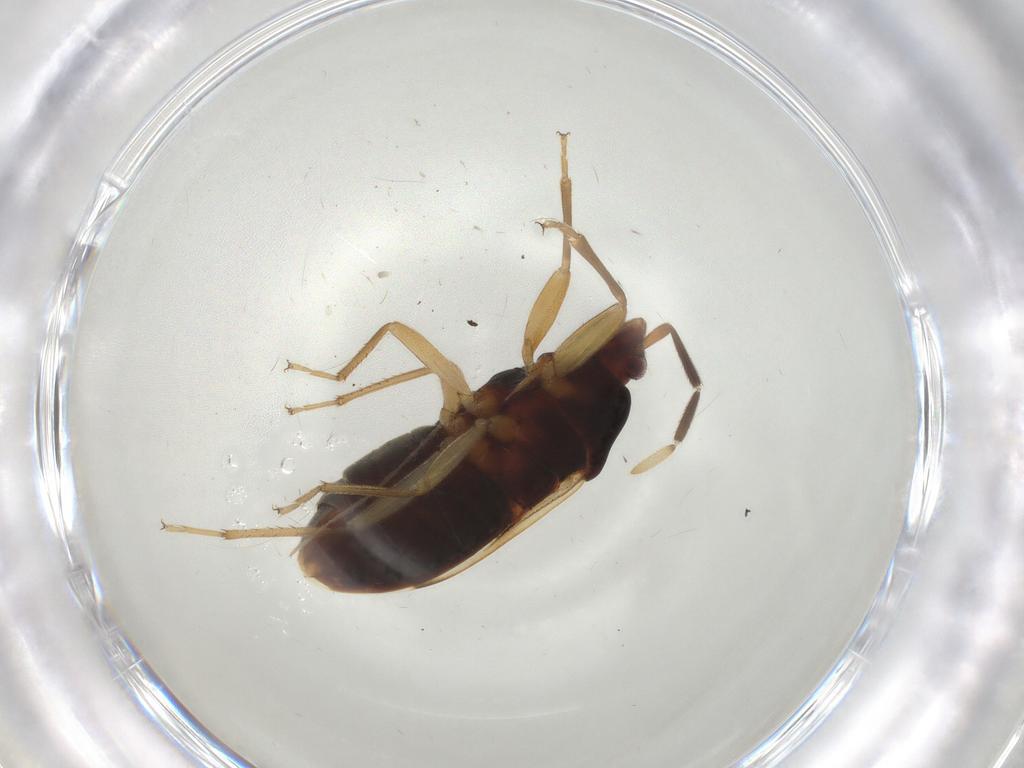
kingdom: Animalia
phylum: Arthropoda
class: Insecta
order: Hemiptera
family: Rhyparochromidae
